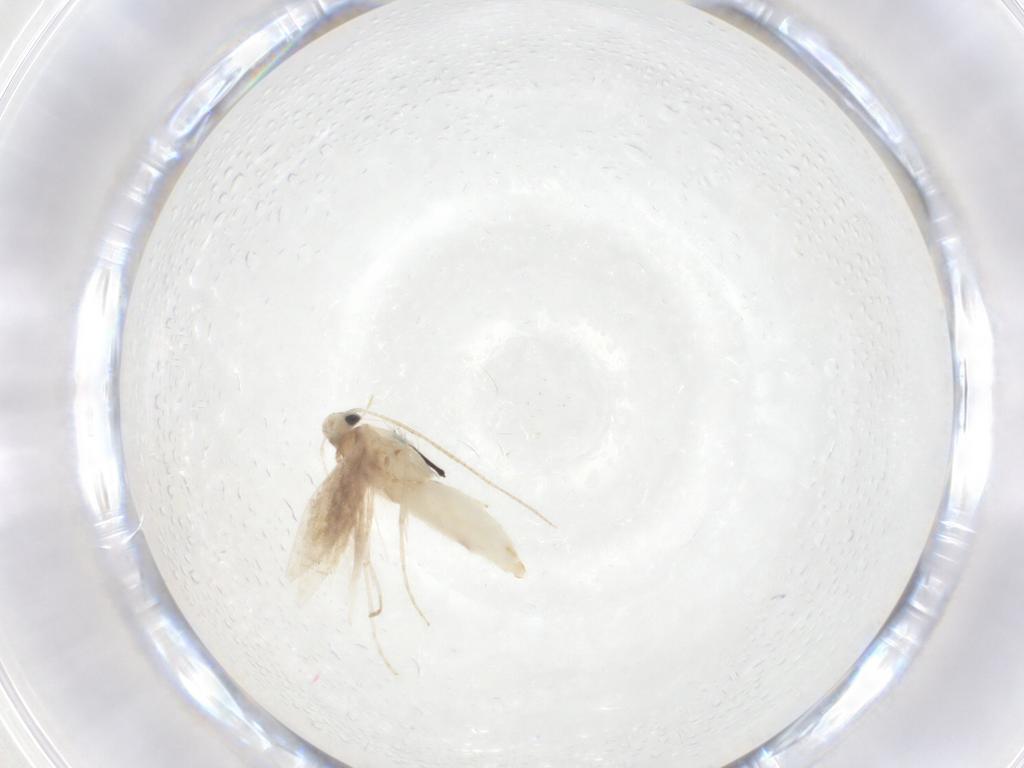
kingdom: Animalia
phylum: Arthropoda
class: Insecta
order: Lepidoptera
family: Gracillariidae
